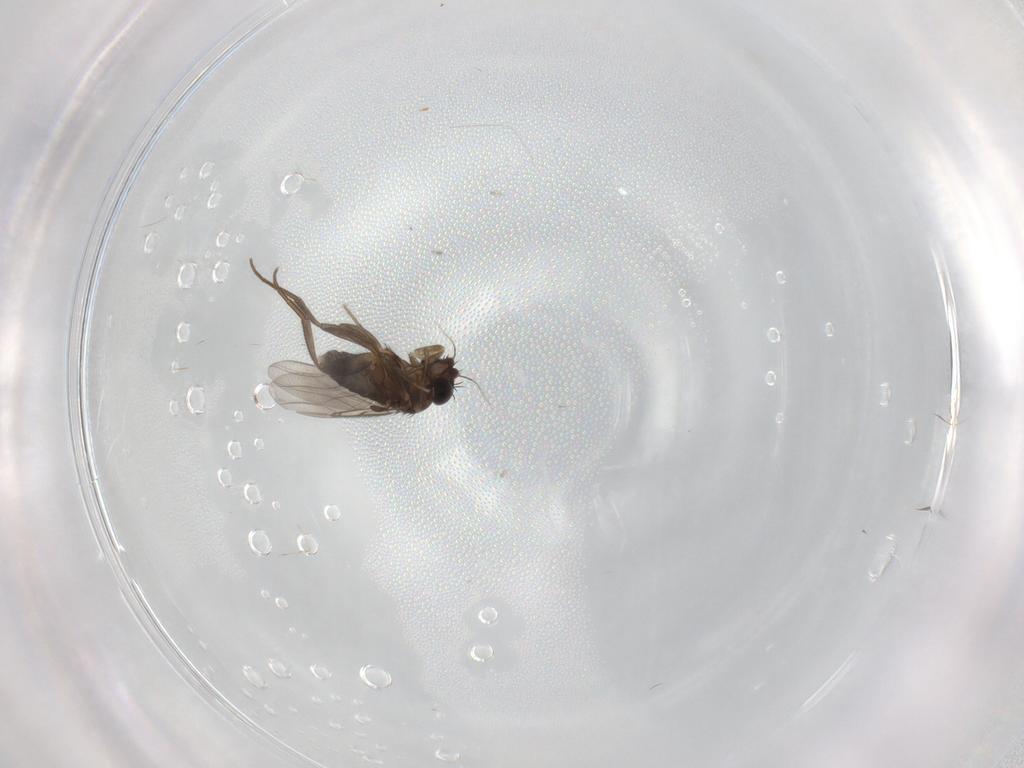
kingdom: Animalia
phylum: Arthropoda
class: Insecta
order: Diptera
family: Phoridae
